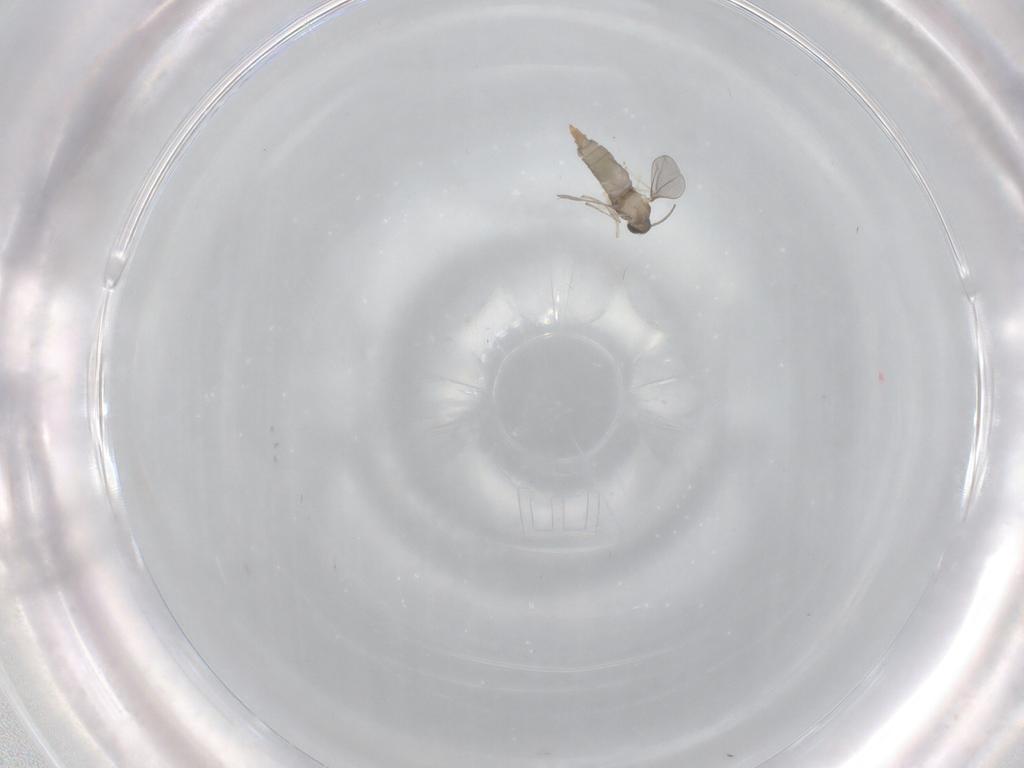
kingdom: Animalia
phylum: Arthropoda
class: Insecta
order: Diptera
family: Cecidomyiidae
